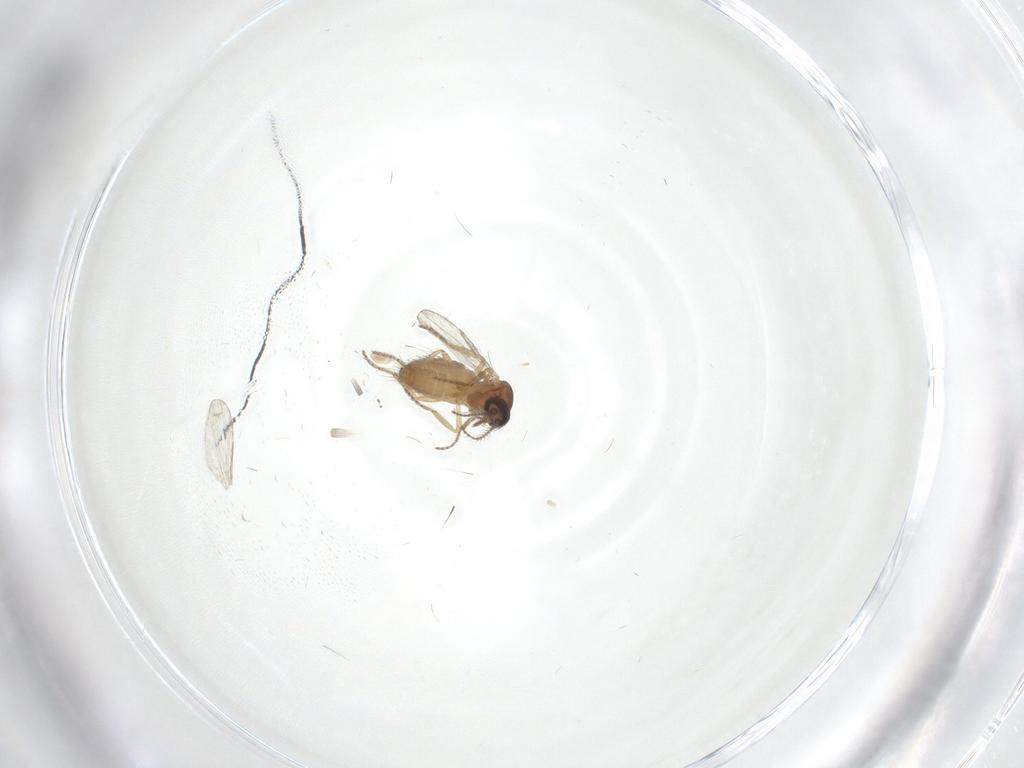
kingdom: Animalia
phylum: Arthropoda
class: Insecta
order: Diptera
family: Ceratopogonidae
